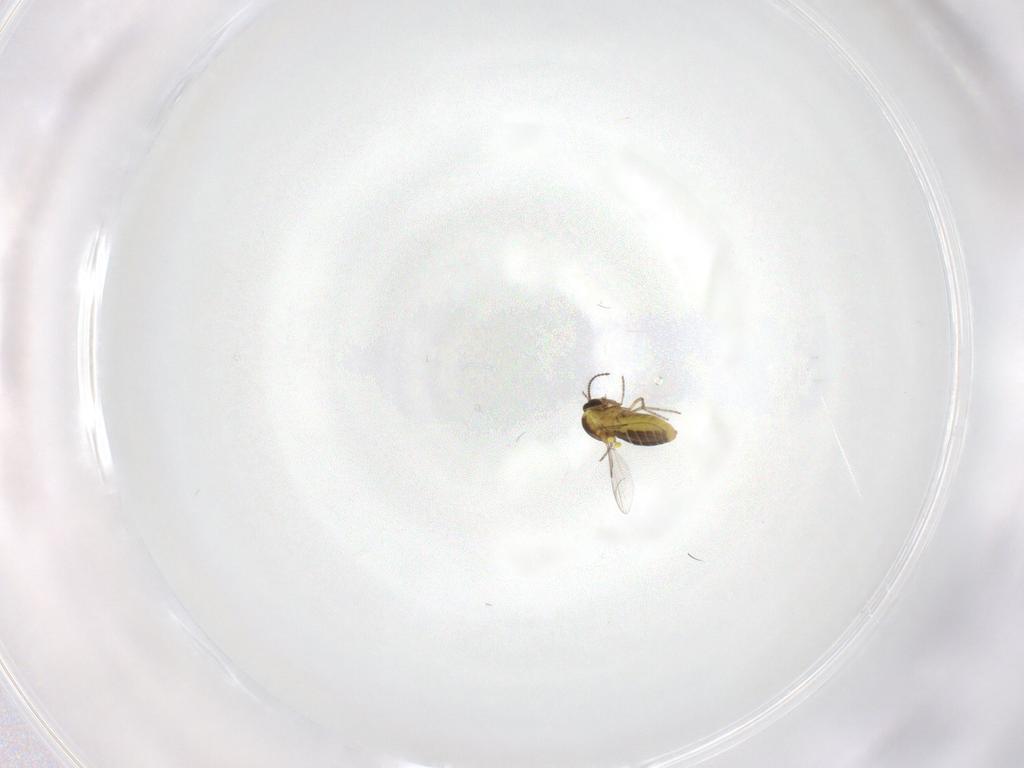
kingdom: Animalia
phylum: Arthropoda
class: Insecta
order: Diptera
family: Ceratopogonidae
